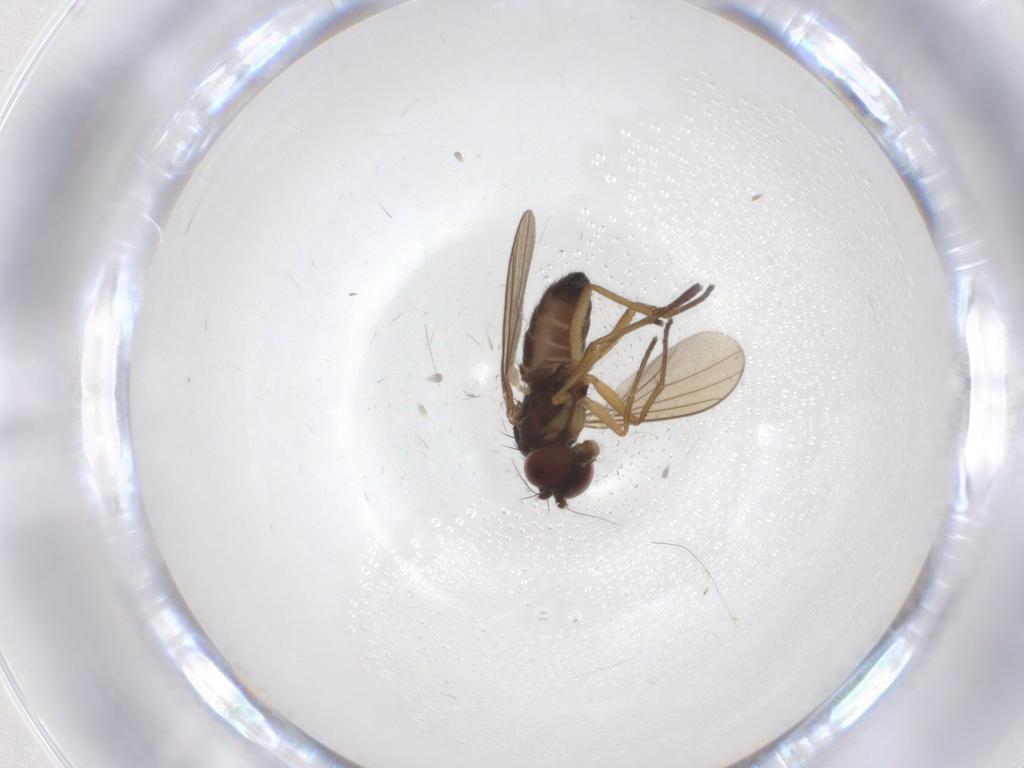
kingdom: Animalia
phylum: Arthropoda
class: Insecta
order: Diptera
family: Dolichopodidae
